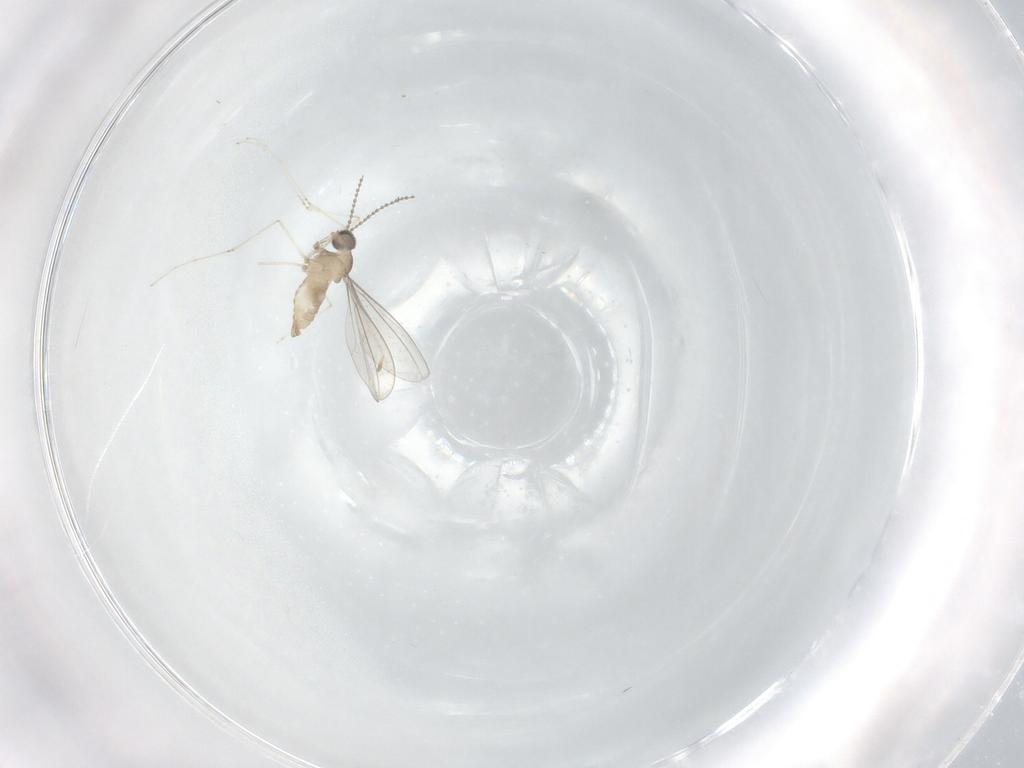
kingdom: Animalia
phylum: Arthropoda
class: Insecta
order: Diptera
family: Cecidomyiidae
